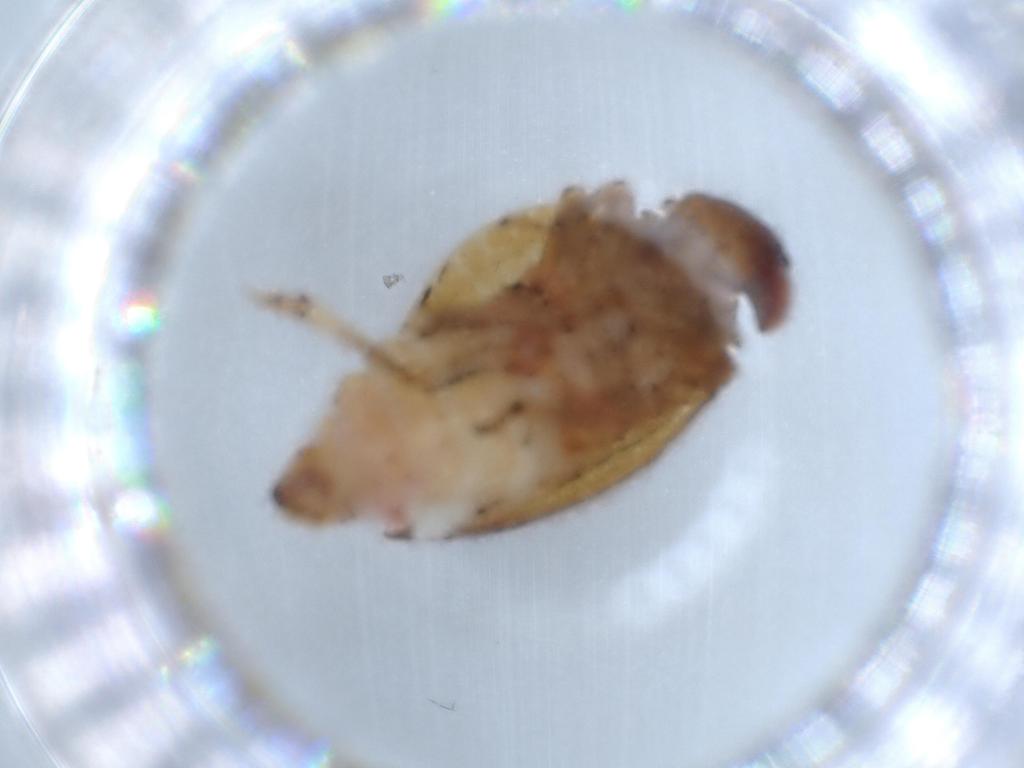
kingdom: Animalia
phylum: Arthropoda
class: Insecta
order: Hemiptera
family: Issidae
